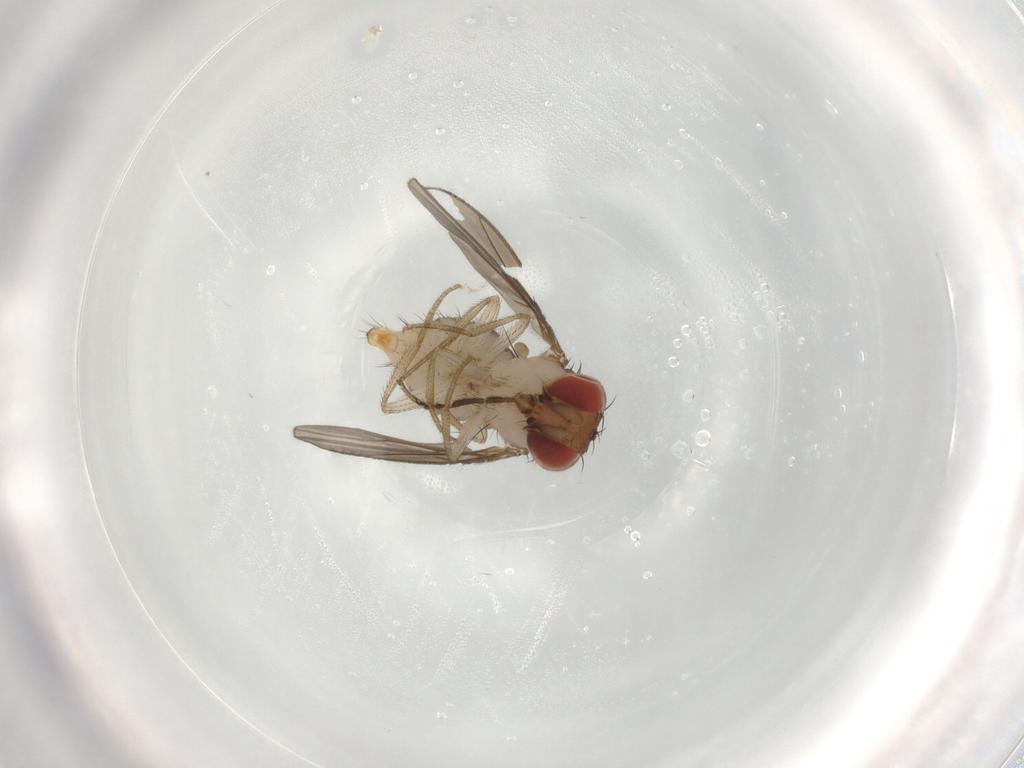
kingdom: Animalia
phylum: Arthropoda
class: Insecta
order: Diptera
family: Drosophilidae
